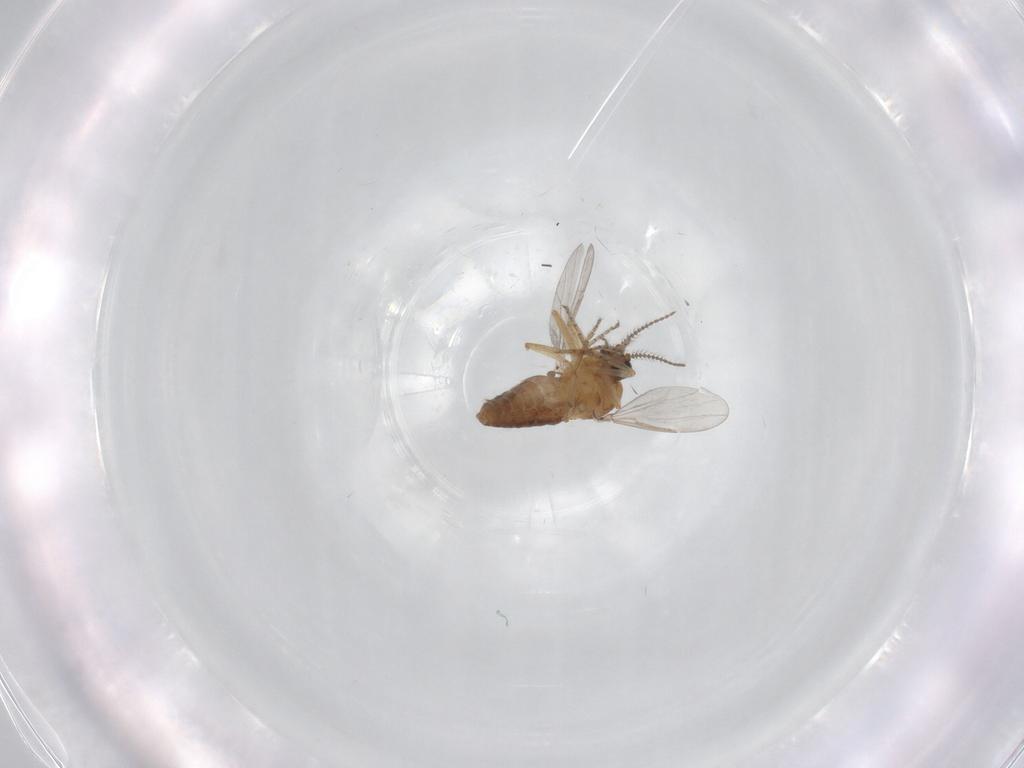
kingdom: Animalia
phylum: Arthropoda
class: Insecta
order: Diptera
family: Ceratopogonidae
